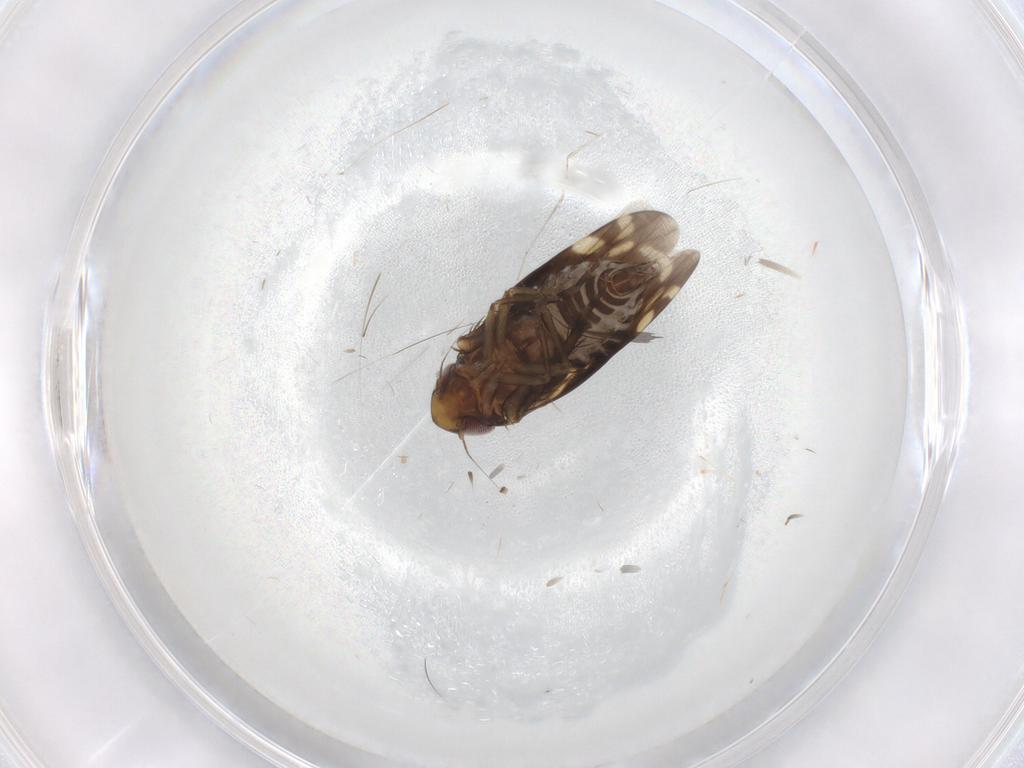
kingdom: Animalia
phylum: Arthropoda
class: Insecta
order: Hemiptera
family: Cicadellidae
